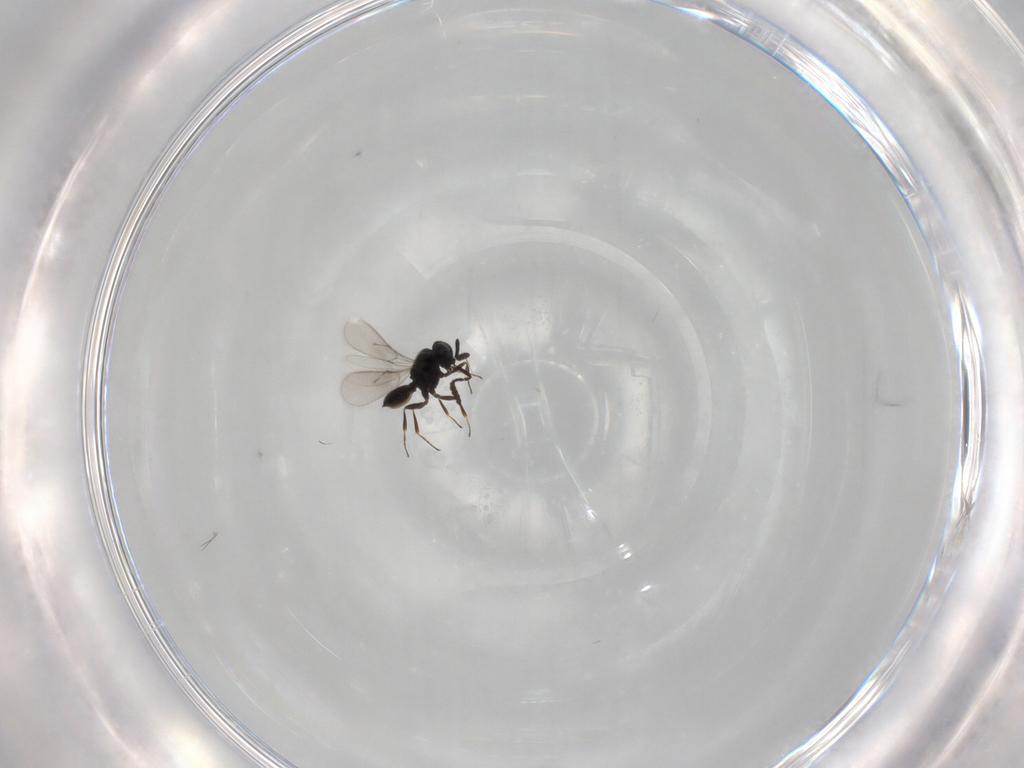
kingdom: Animalia
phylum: Arthropoda
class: Insecta
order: Hymenoptera
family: Scelionidae
